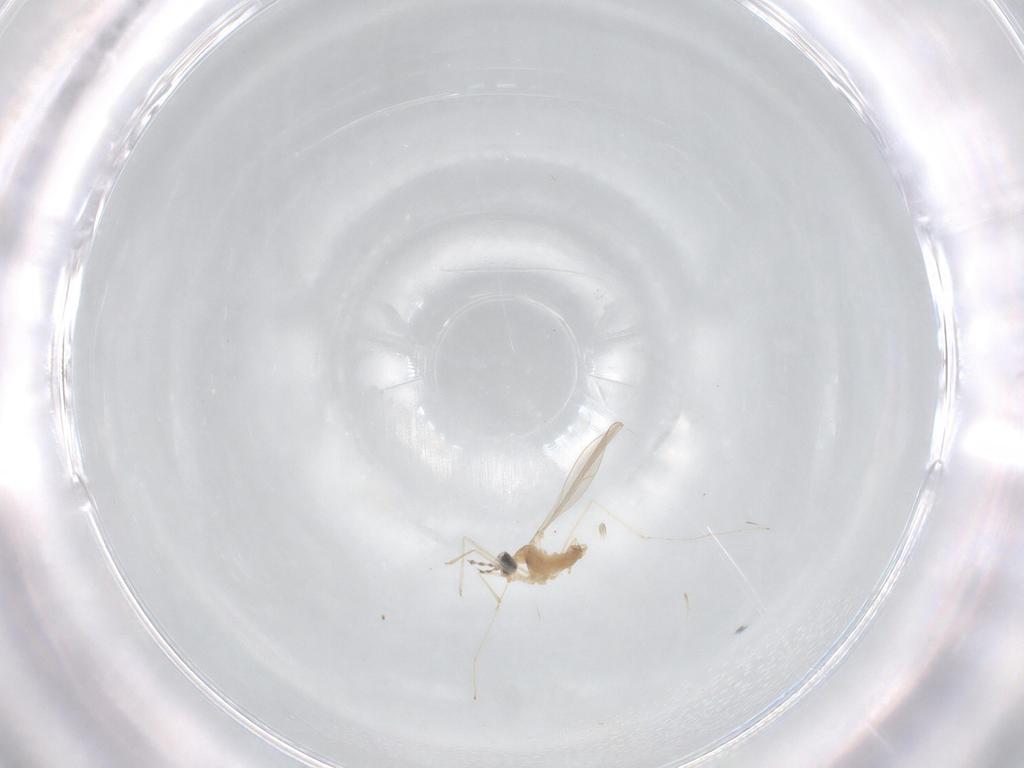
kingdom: Animalia
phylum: Arthropoda
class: Insecta
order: Diptera
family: Cecidomyiidae
